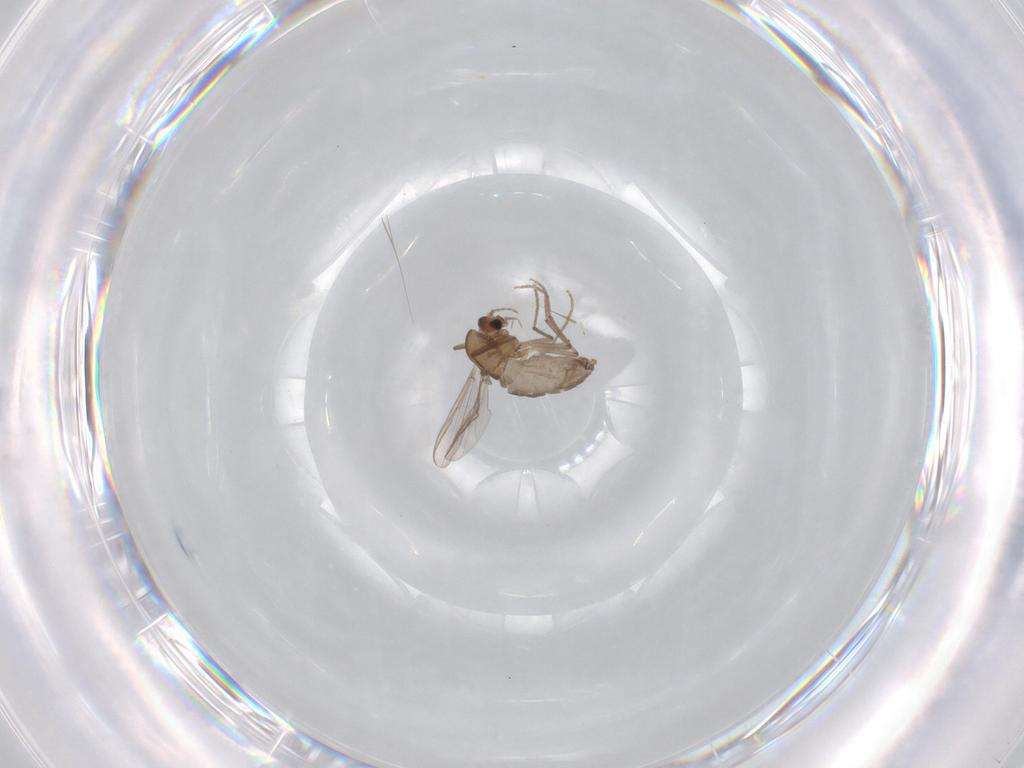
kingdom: Animalia
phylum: Arthropoda
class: Insecta
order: Diptera
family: Chironomidae
